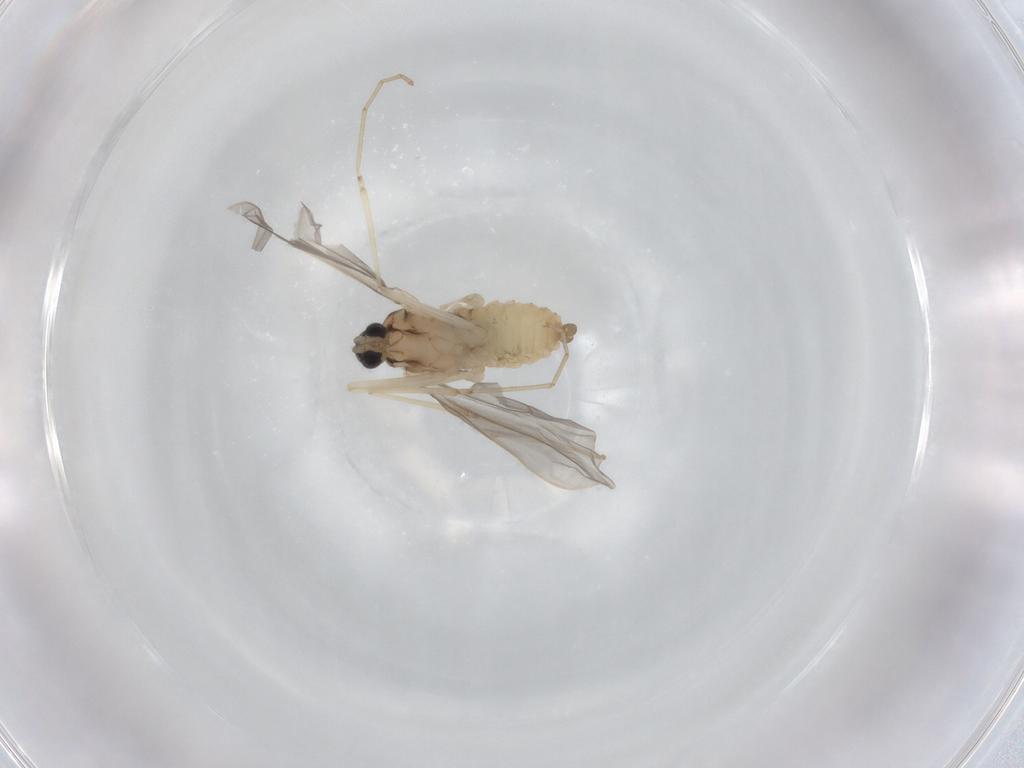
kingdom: Animalia
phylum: Arthropoda
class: Insecta
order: Diptera
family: Cecidomyiidae
